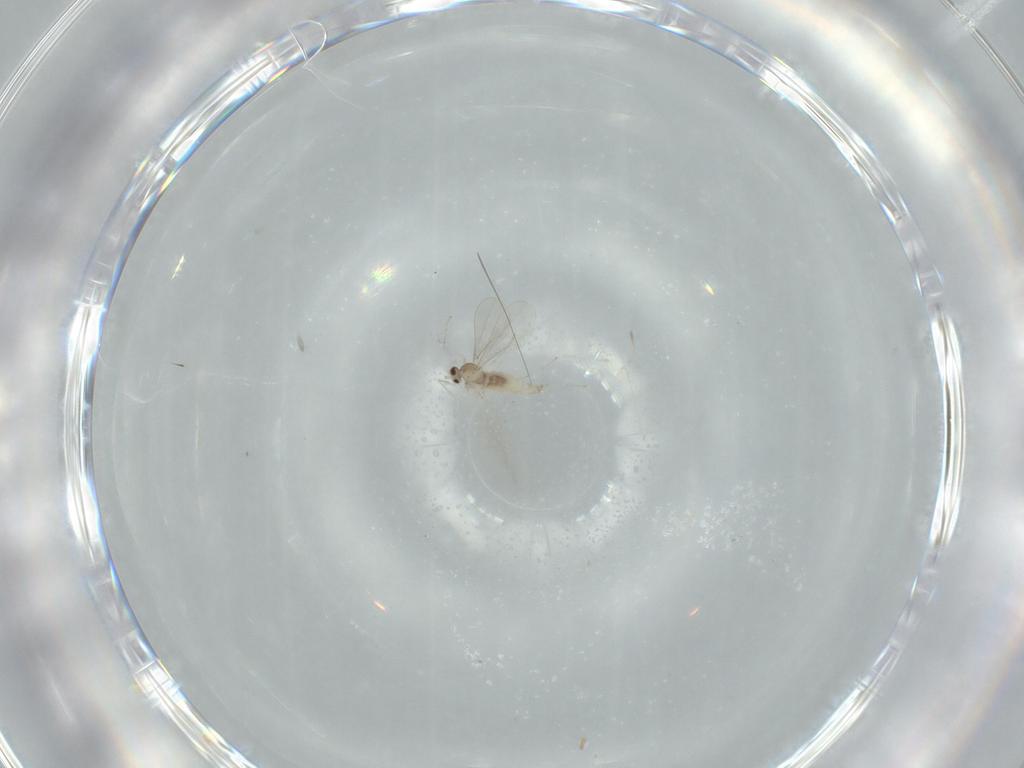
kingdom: Animalia
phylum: Arthropoda
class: Insecta
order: Diptera
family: Cecidomyiidae
